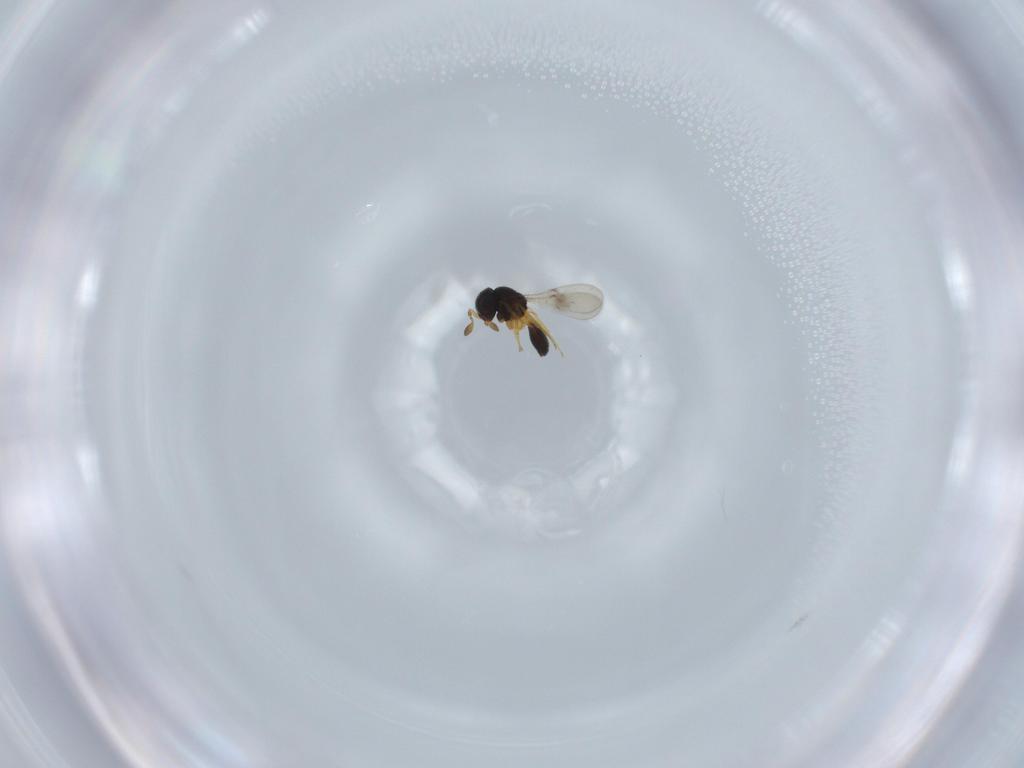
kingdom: Animalia
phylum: Arthropoda
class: Insecta
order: Hymenoptera
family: Scelionidae
